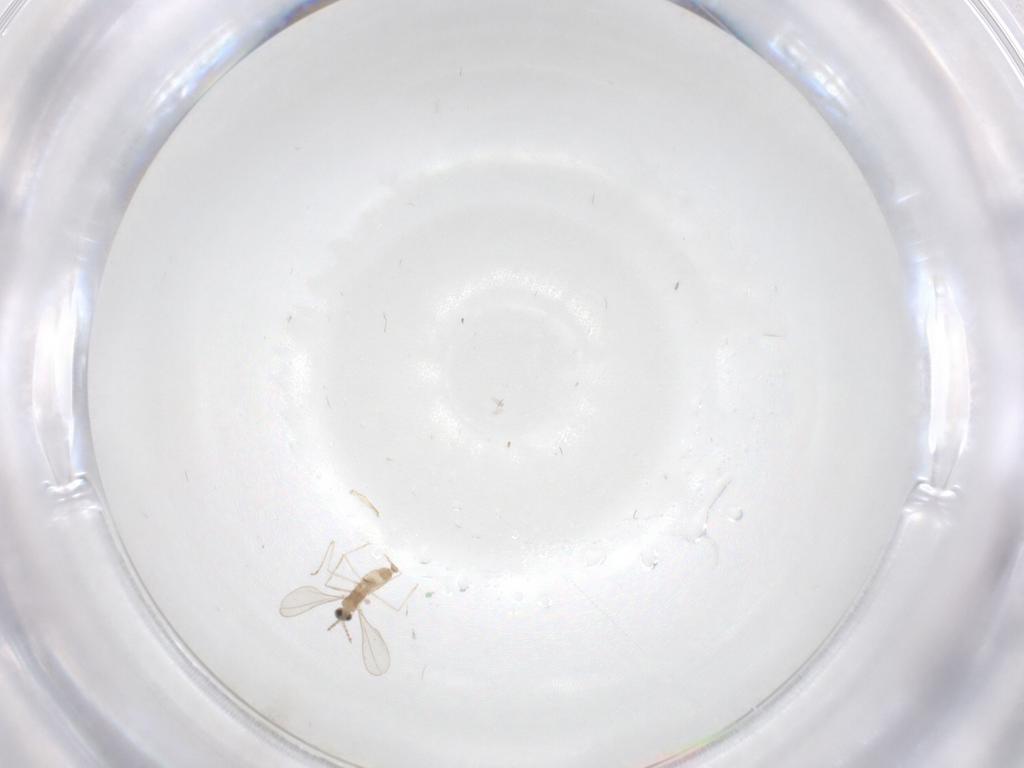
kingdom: Animalia
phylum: Arthropoda
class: Insecta
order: Diptera
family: Cecidomyiidae
